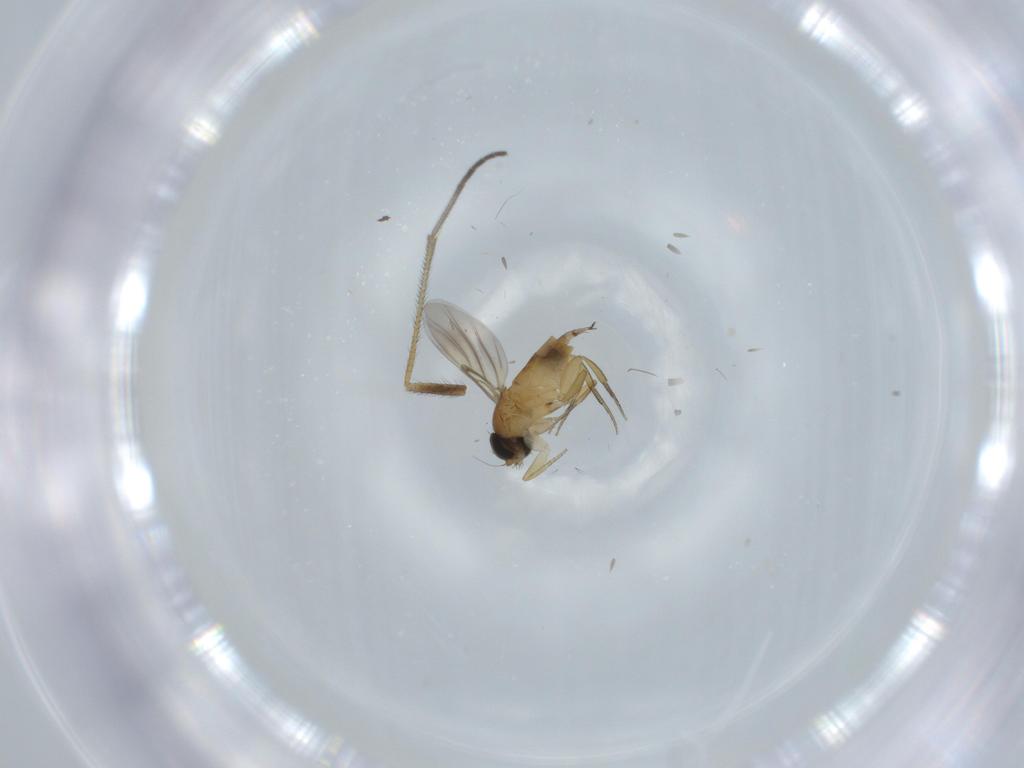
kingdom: Animalia
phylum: Arthropoda
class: Insecta
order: Diptera
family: Phoridae
